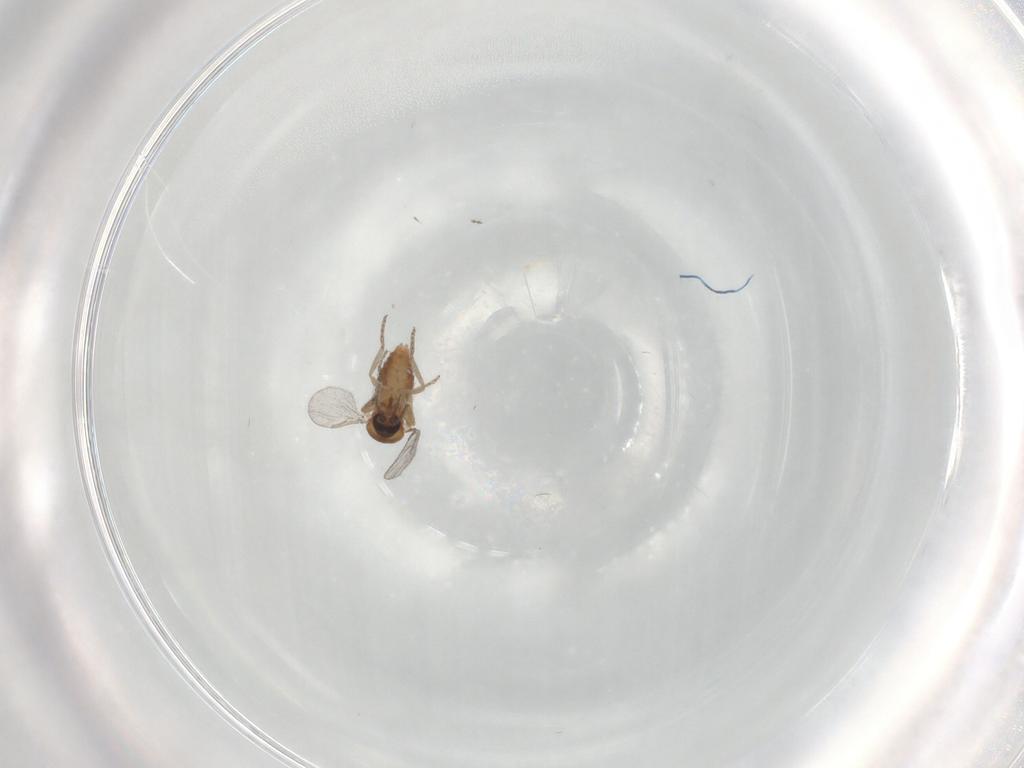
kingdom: Animalia
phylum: Arthropoda
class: Insecta
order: Diptera
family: Ceratopogonidae
